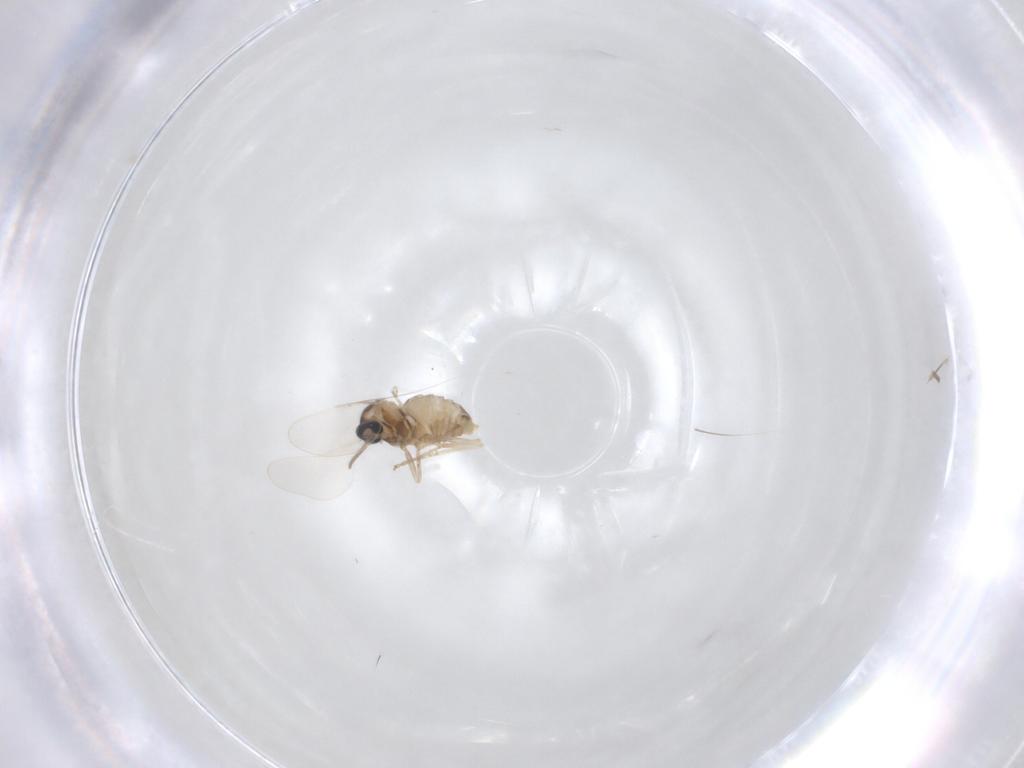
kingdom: Animalia
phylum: Arthropoda
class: Insecta
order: Diptera
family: Cecidomyiidae
